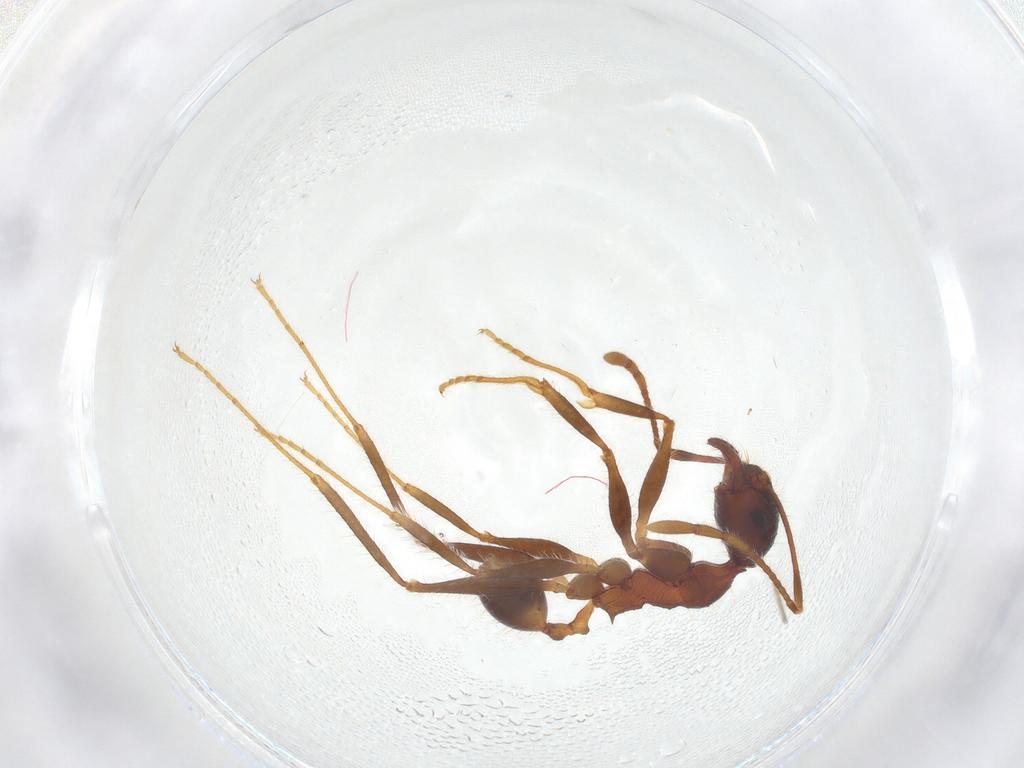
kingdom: Animalia
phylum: Arthropoda
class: Insecta
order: Hymenoptera
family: Formicidae
